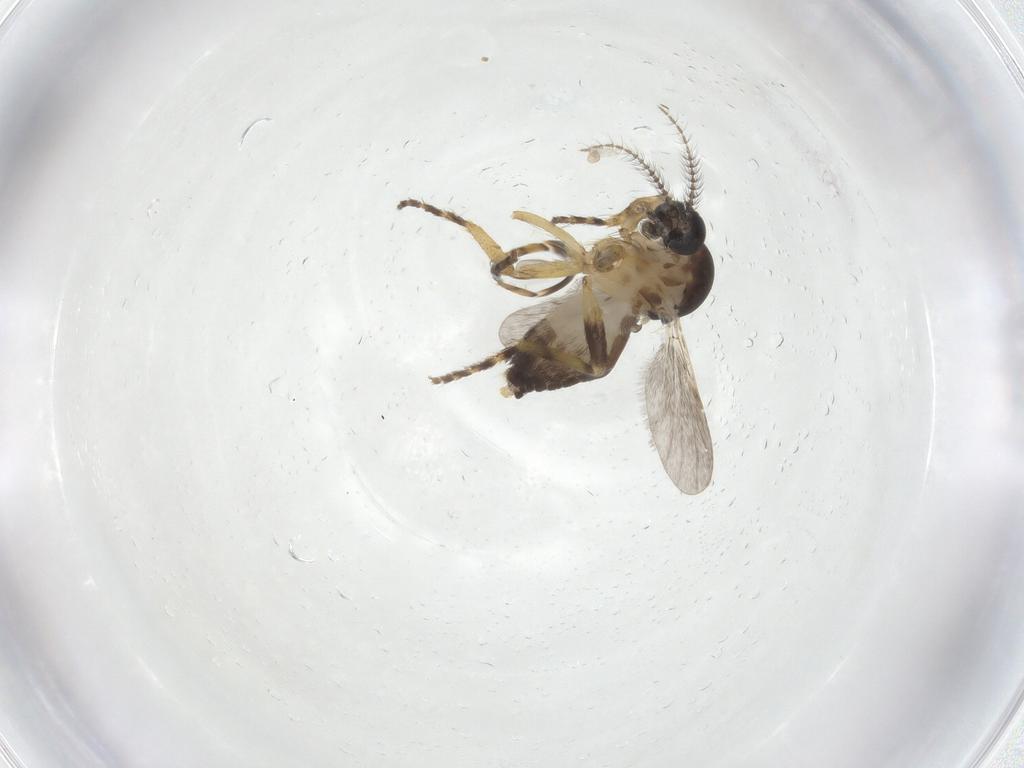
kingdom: Animalia
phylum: Arthropoda
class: Insecta
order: Diptera
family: Ceratopogonidae
